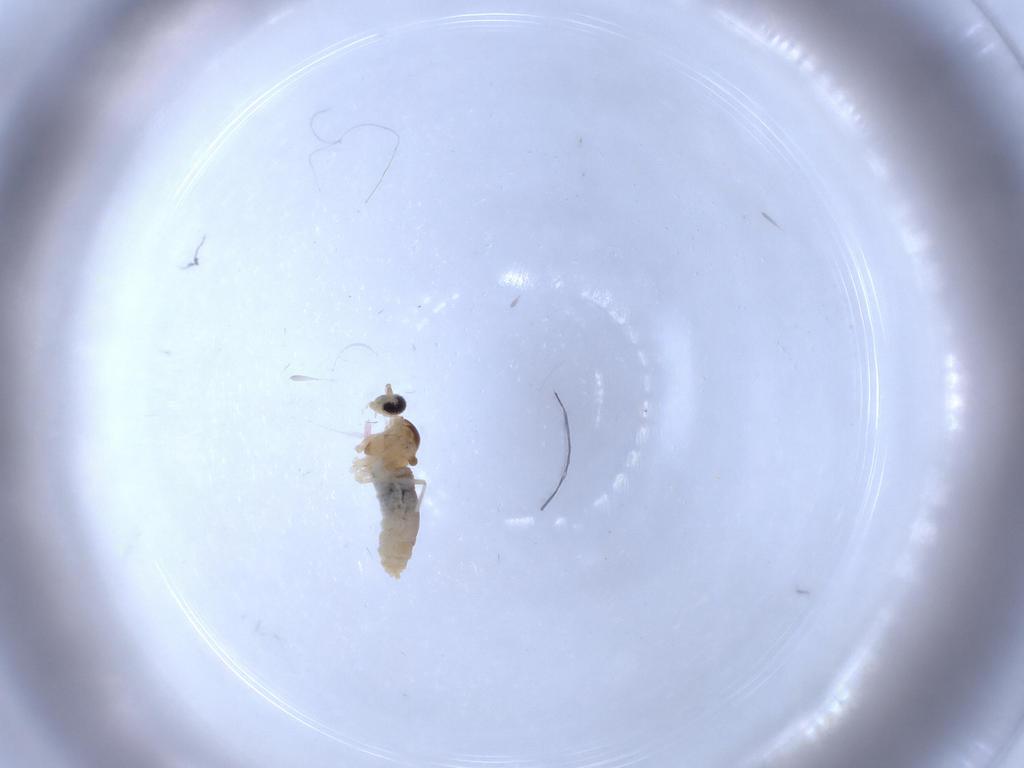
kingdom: Animalia
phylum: Arthropoda
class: Insecta
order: Diptera
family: Cecidomyiidae
